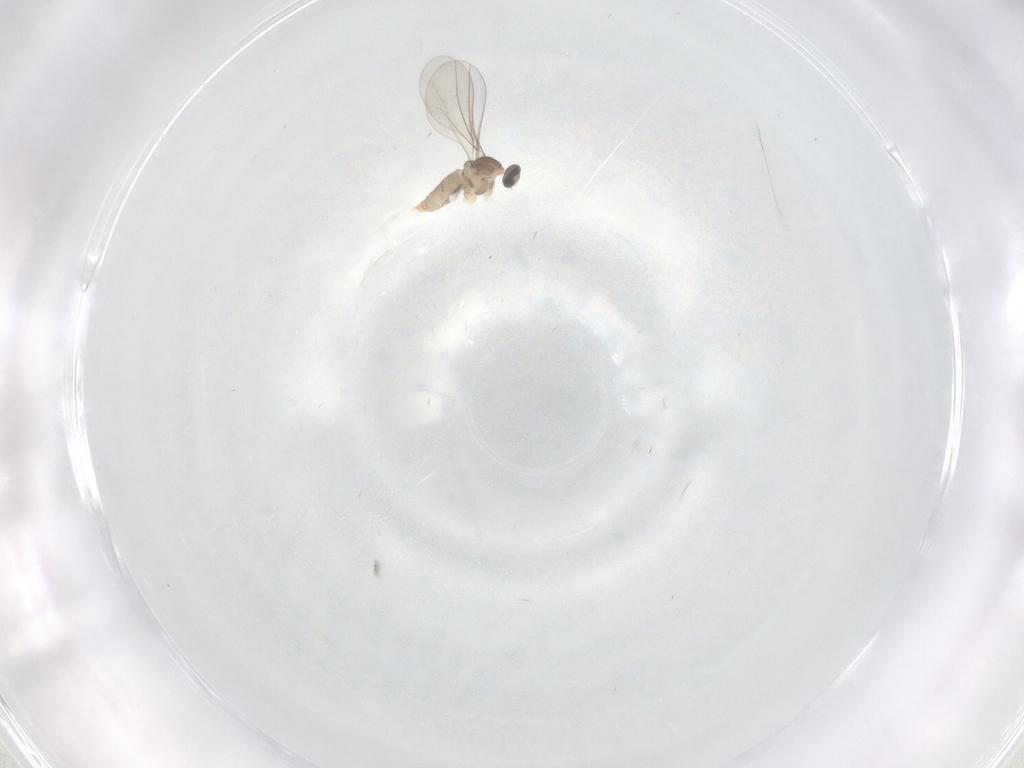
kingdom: Animalia
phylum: Arthropoda
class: Insecta
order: Diptera
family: Cecidomyiidae
